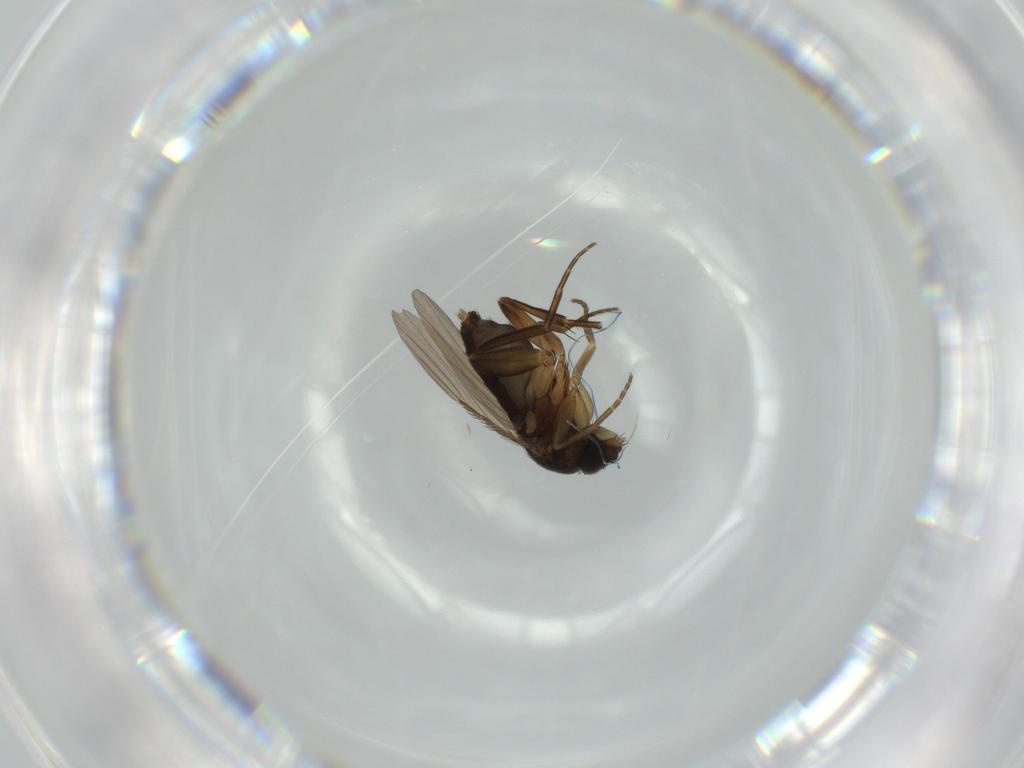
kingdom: Animalia
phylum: Arthropoda
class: Insecta
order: Diptera
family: Phoridae
